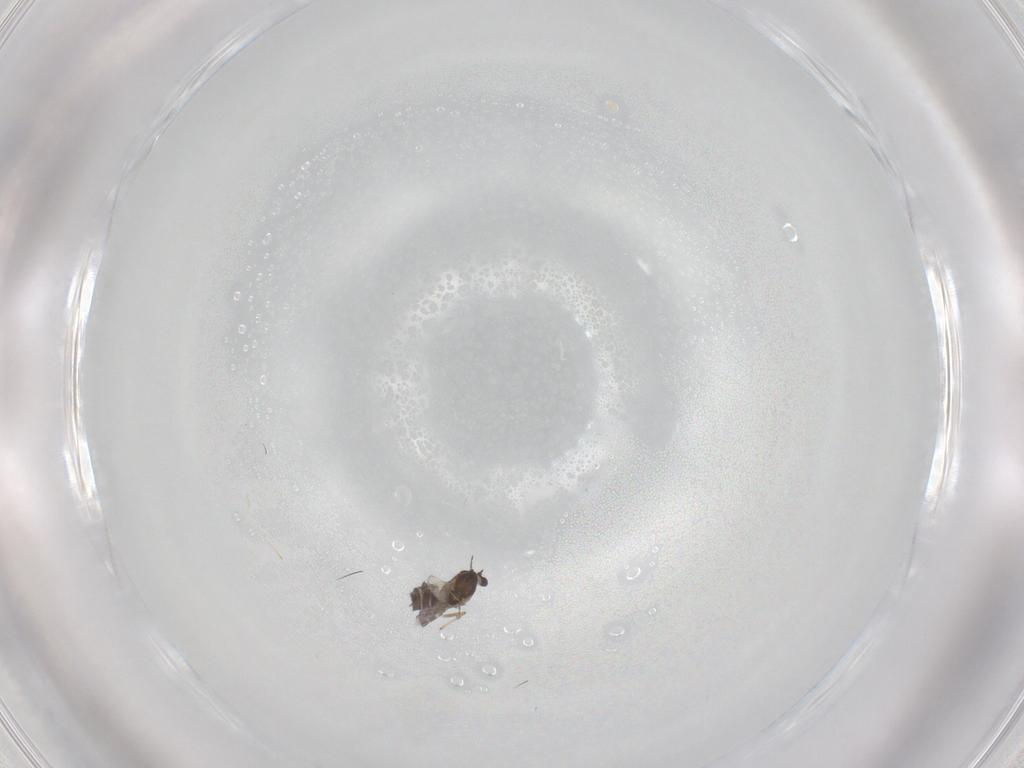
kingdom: Animalia
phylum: Arthropoda
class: Insecta
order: Diptera
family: Chironomidae
